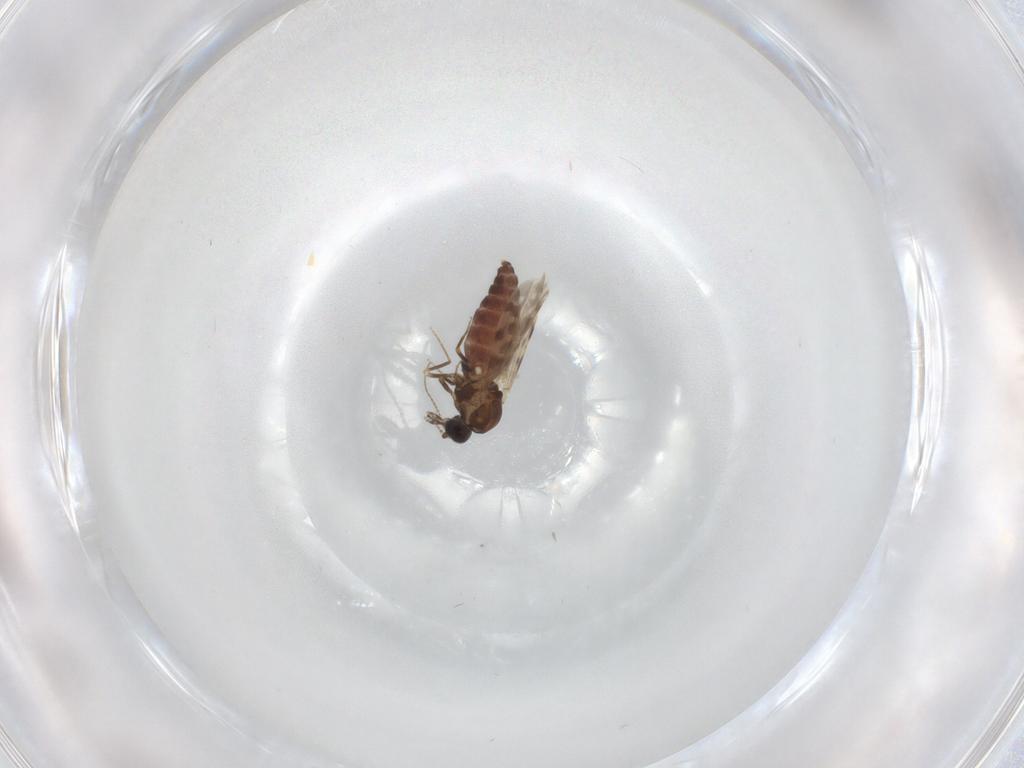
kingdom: Animalia
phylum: Arthropoda
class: Insecta
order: Diptera
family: Cecidomyiidae
